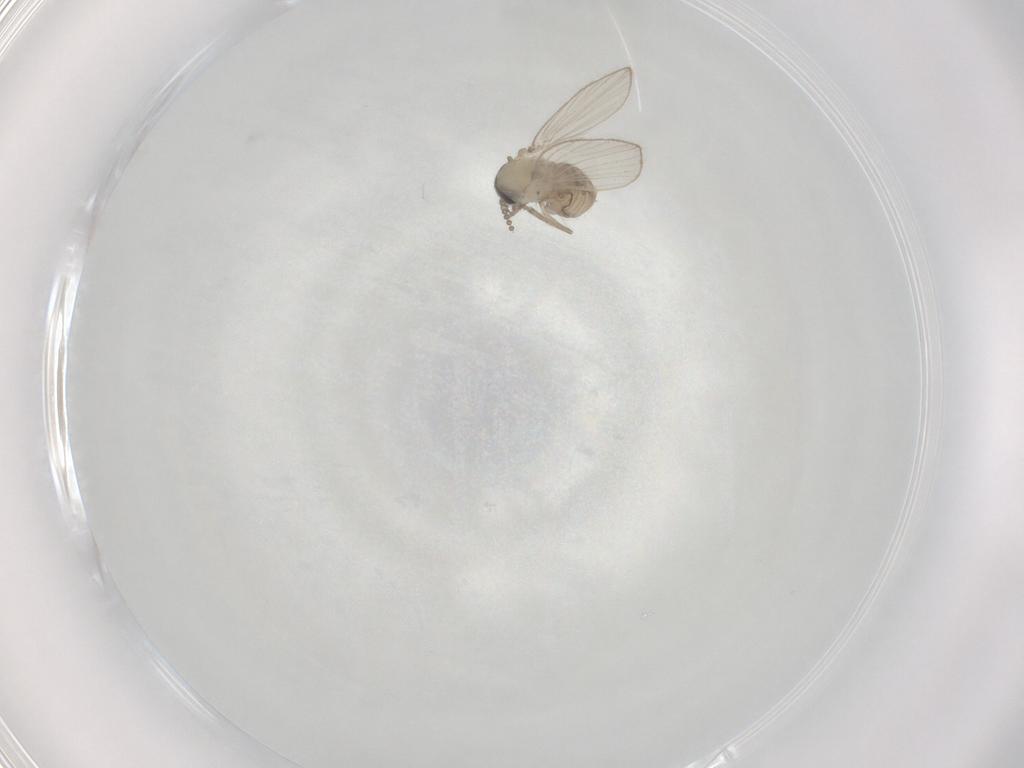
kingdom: Animalia
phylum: Arthropoda
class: Insecta
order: Diptera
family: Psychodidae
